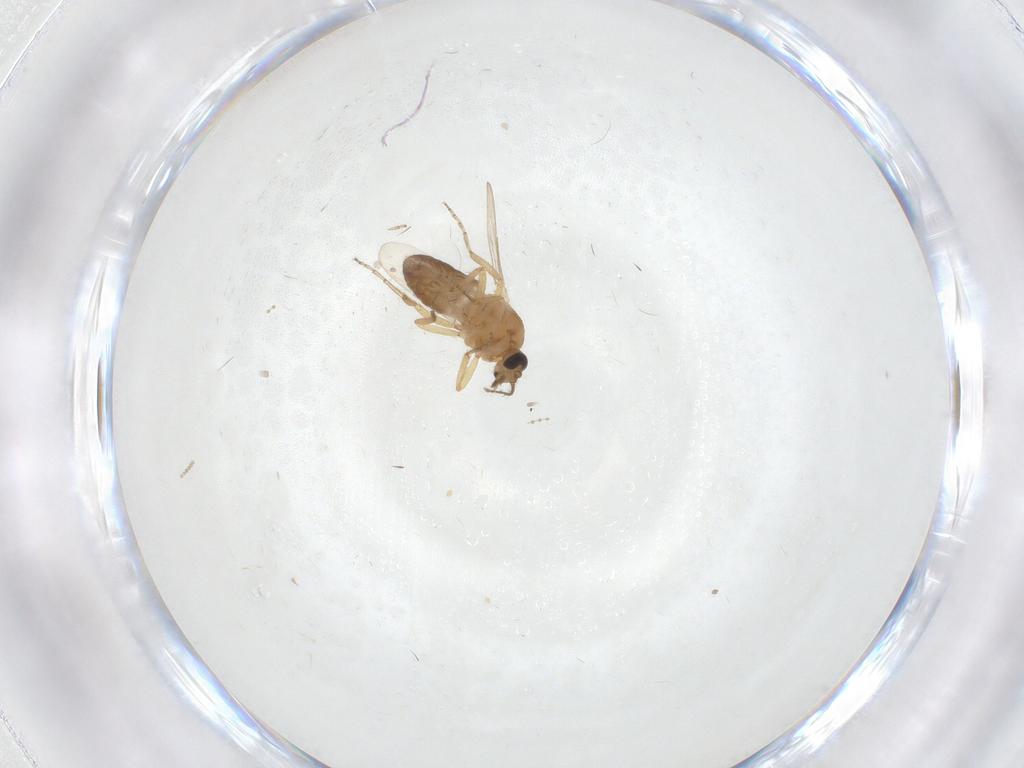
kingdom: Animalia
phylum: Arthropoda
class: Insecta
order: Diptera
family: Ceratopogonidae
